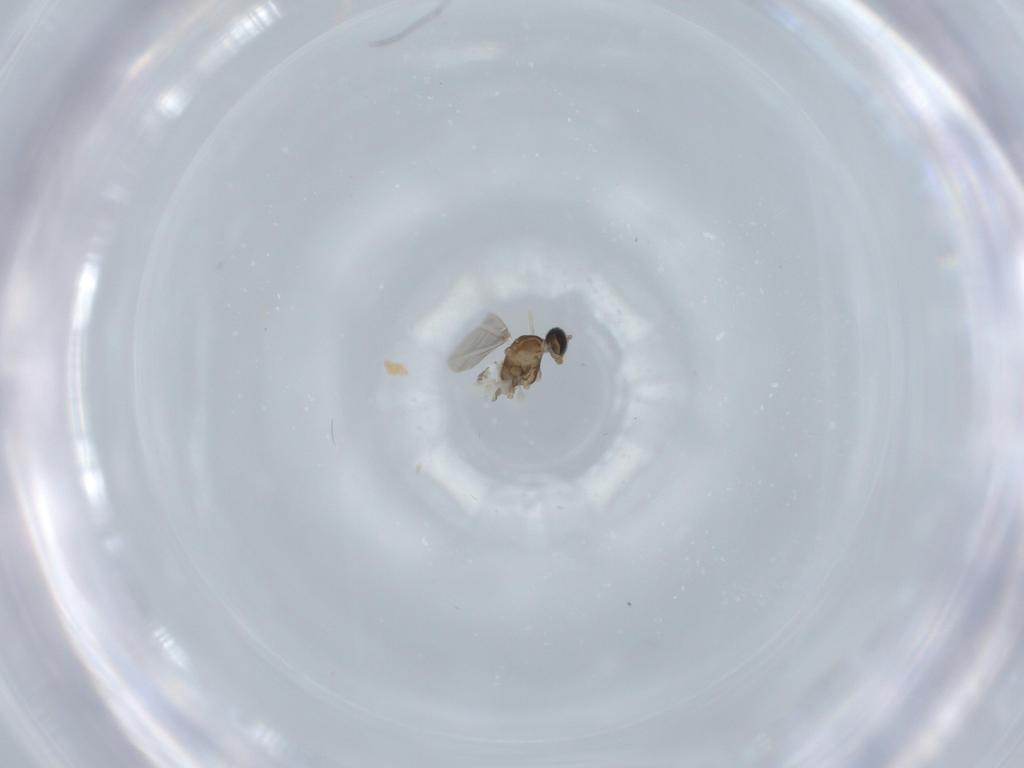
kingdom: Animalia
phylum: Arthropoda
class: Insecta
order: Diptera
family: Cecidomyiidae
